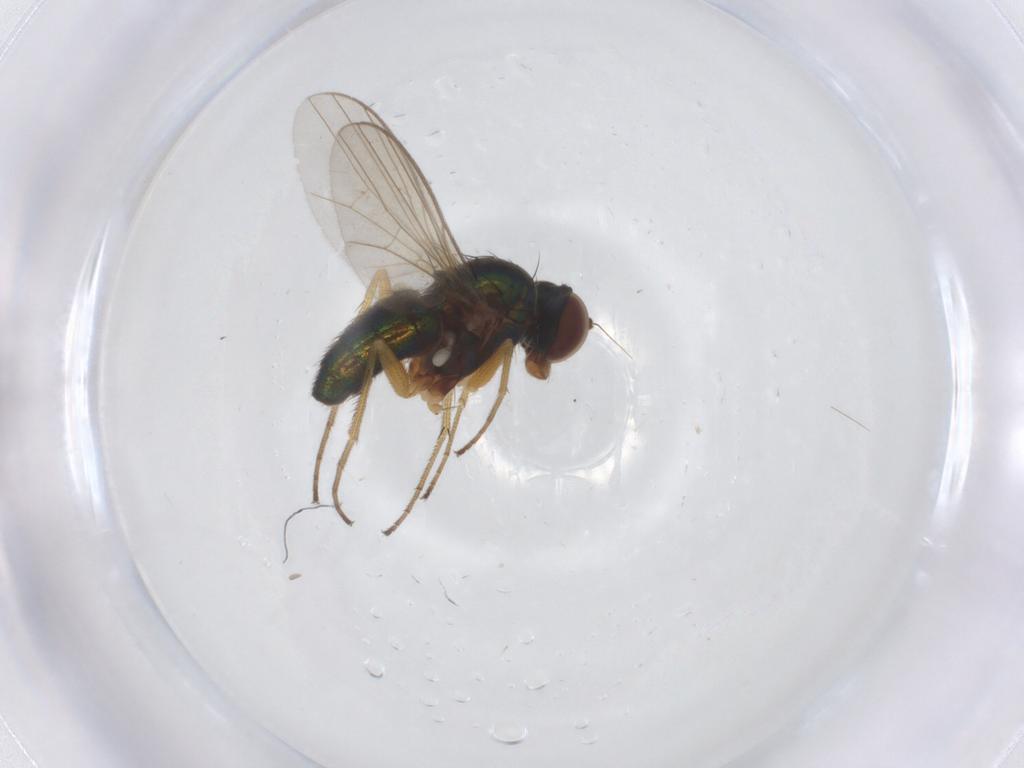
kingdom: Animalia
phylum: Arthropoda
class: Insecta
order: Diptera
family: Dolichopodidae
